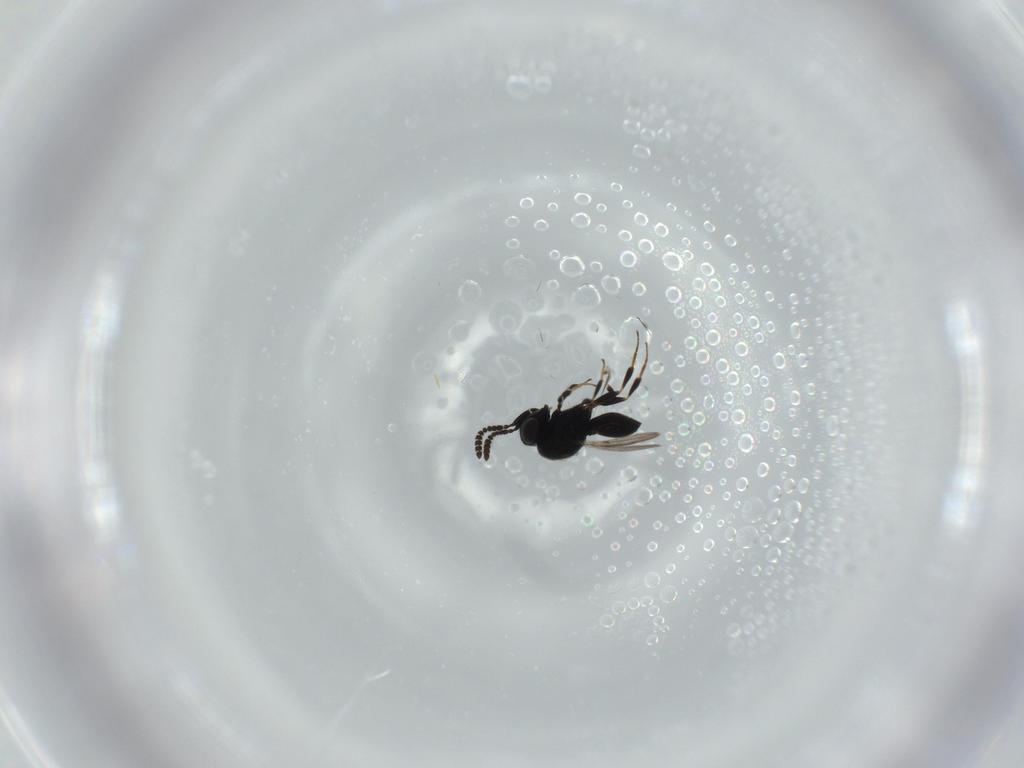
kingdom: Animalia
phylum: Arthropoda
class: Insecta
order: Hymenoptera
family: Scelionidae
